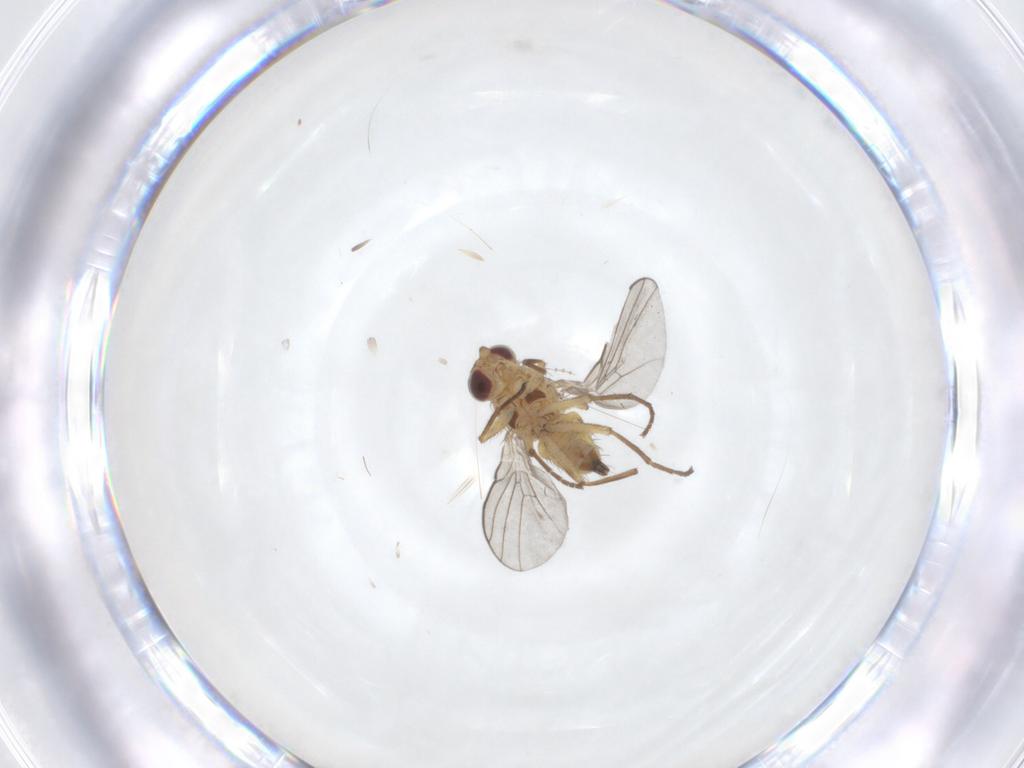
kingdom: Animalia
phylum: Arthropoda
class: Insecta
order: Diptera
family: Agromyzidae
